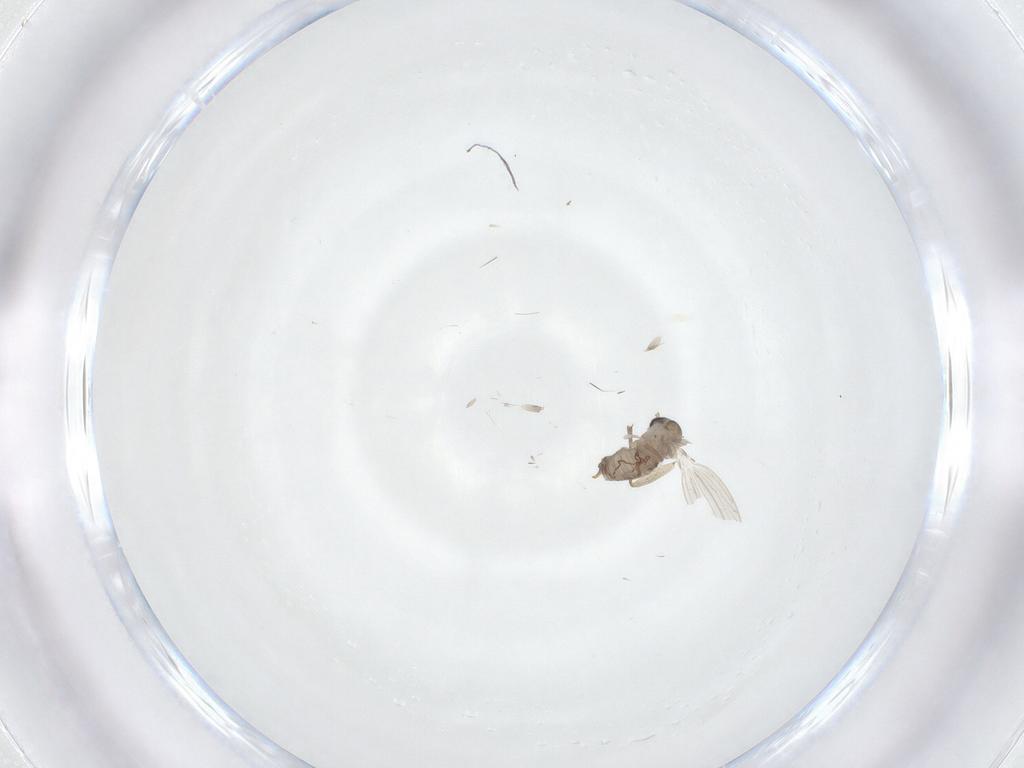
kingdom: Animalia
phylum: Arthropoda
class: Insecta
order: Diptera
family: Psychodidae
